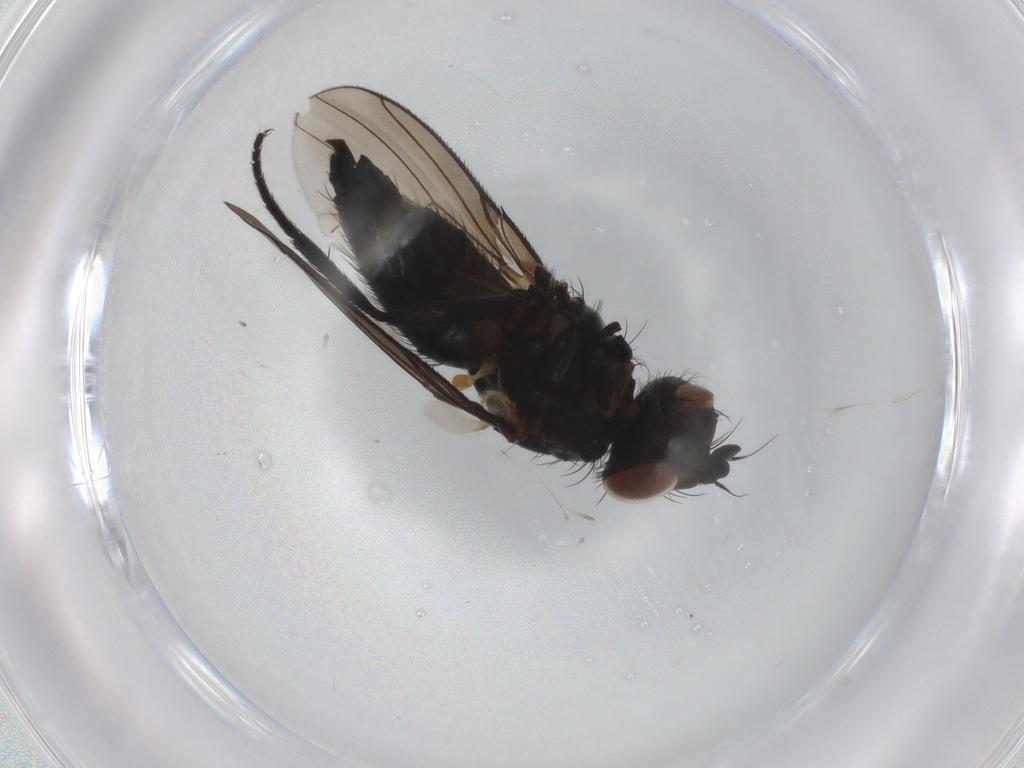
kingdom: Animalia
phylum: Arthropoda
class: Insecta
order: Diptera
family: Anthomyiidae
